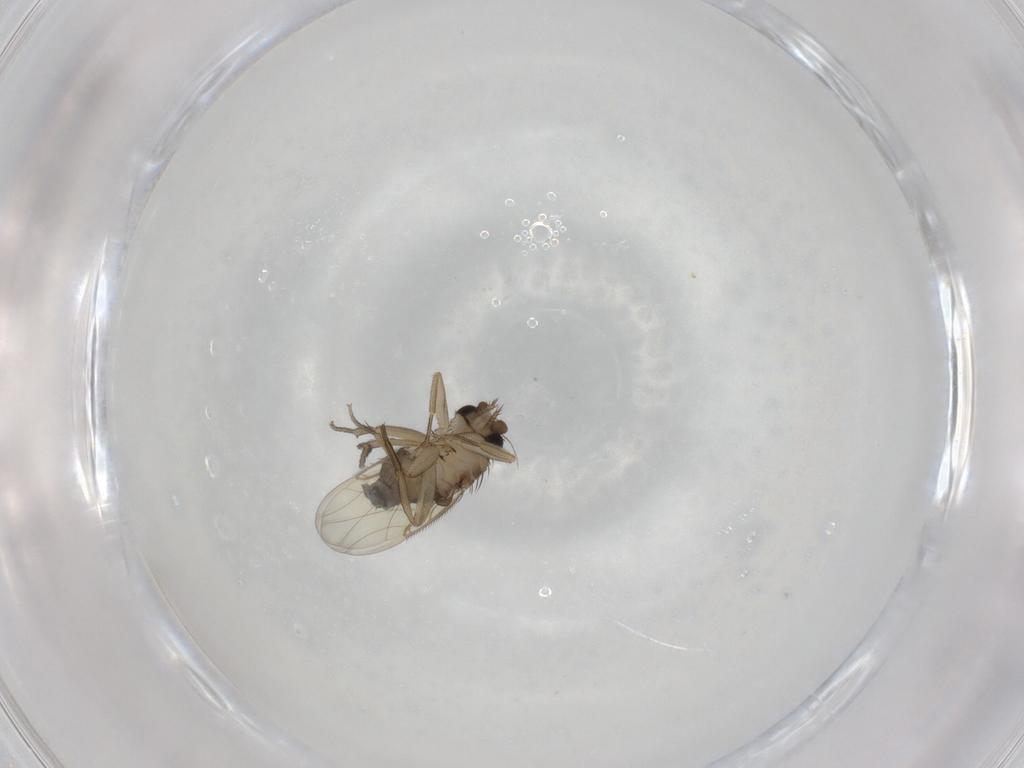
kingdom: Animalia
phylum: Arthropoda
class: Insecta
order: Diptera
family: Phoridae
